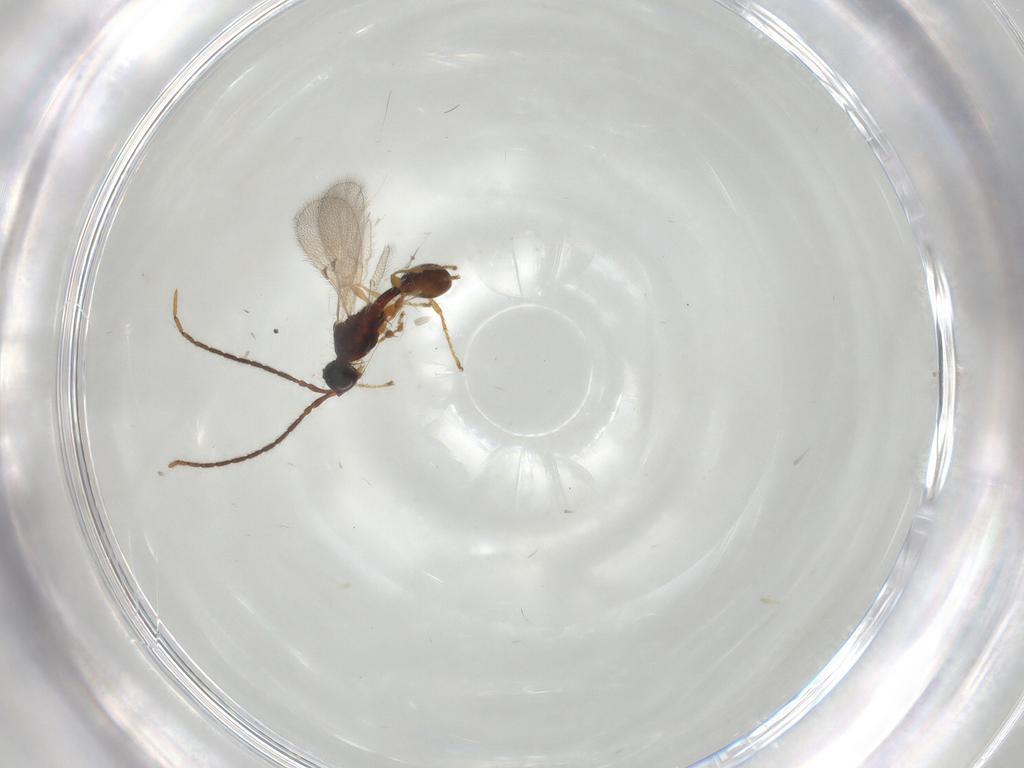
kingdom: Animalia
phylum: Arthropoda
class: Insecta
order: Hymenoptera
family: Diapriidae
